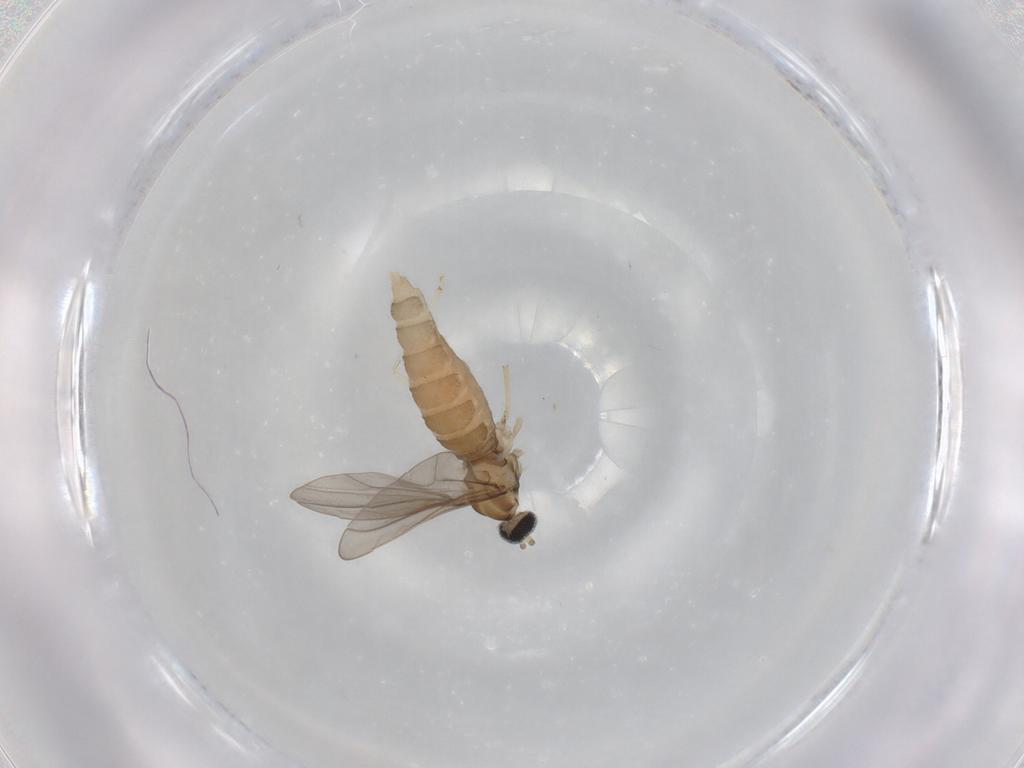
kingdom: Animalia
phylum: Arthropoda
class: Insecta
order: Diptera
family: Cecidomyiidae
